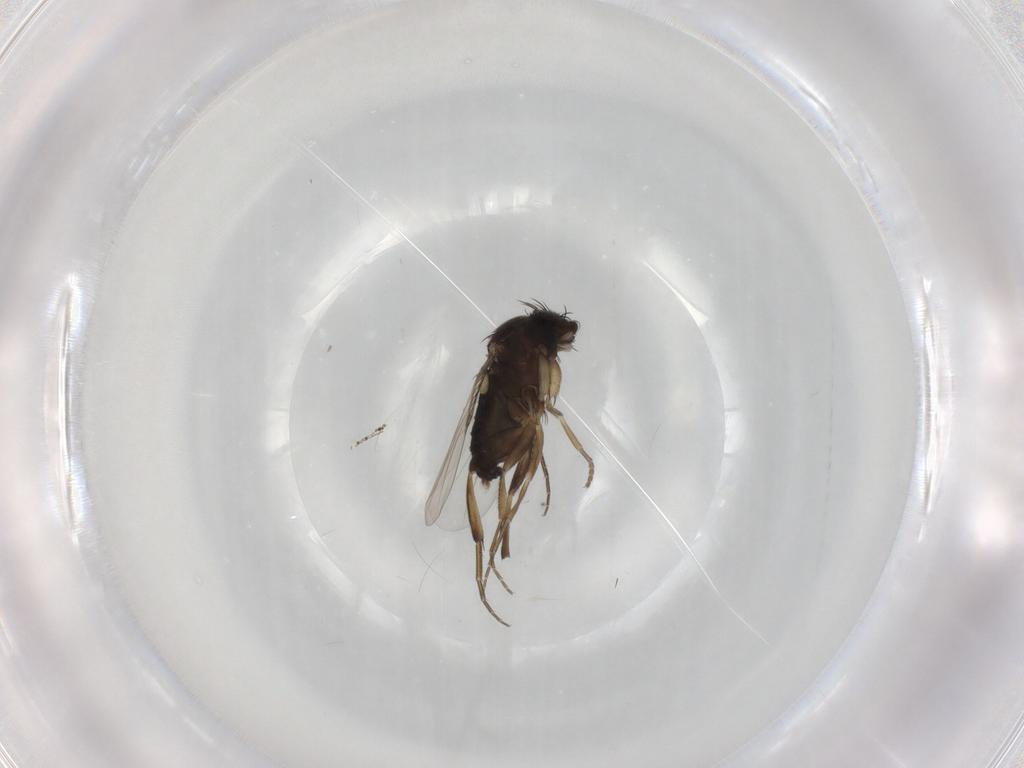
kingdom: Animalia
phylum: Arthropoda
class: Insecta
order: Diptera
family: Phoridae
